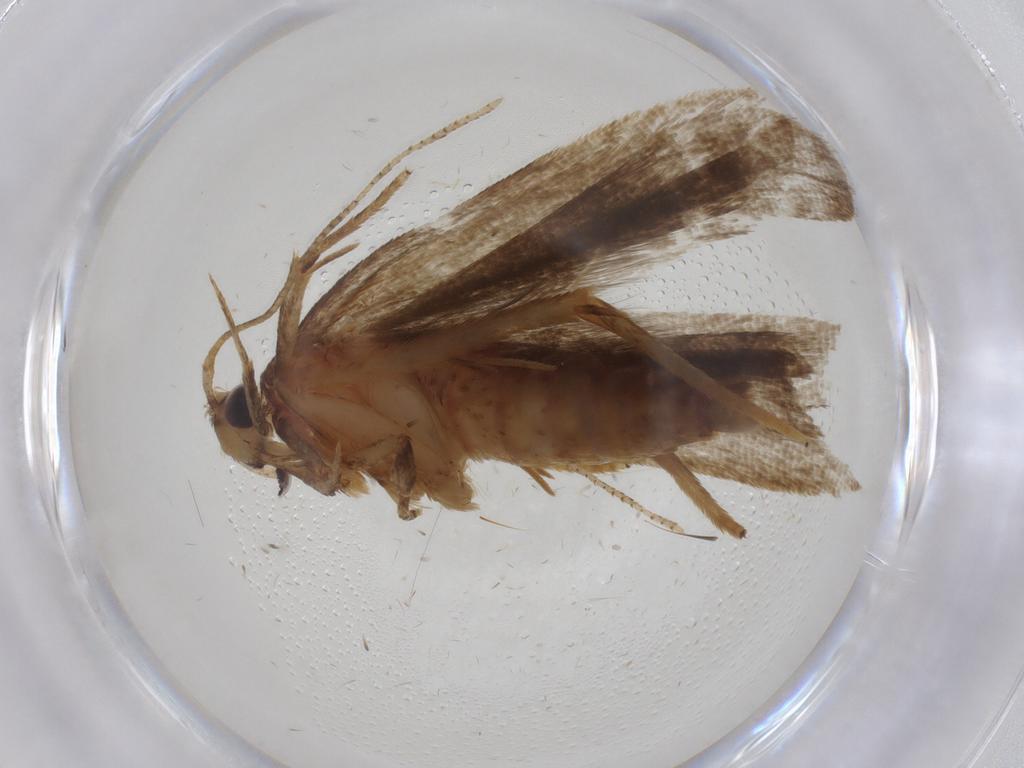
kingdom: Animalia
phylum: Arthropoda
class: Insecta
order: Lepidoptera
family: Autostichidae
